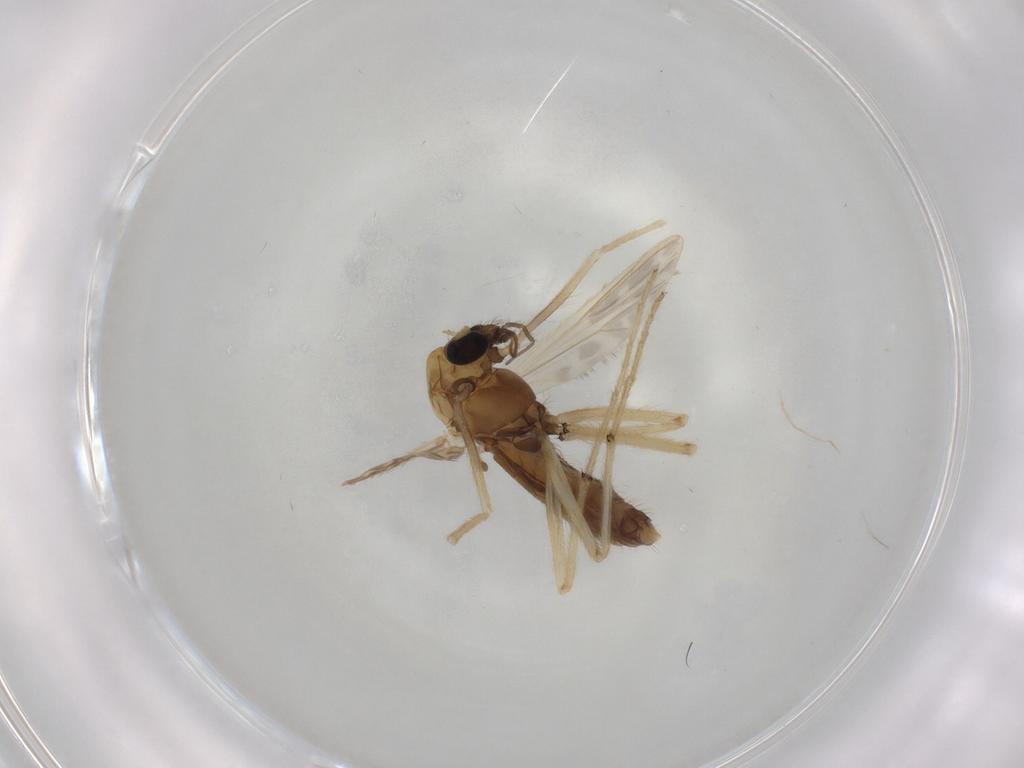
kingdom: Animalia
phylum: Arthropoda
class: Insecta
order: Diptera
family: Chironomidae
